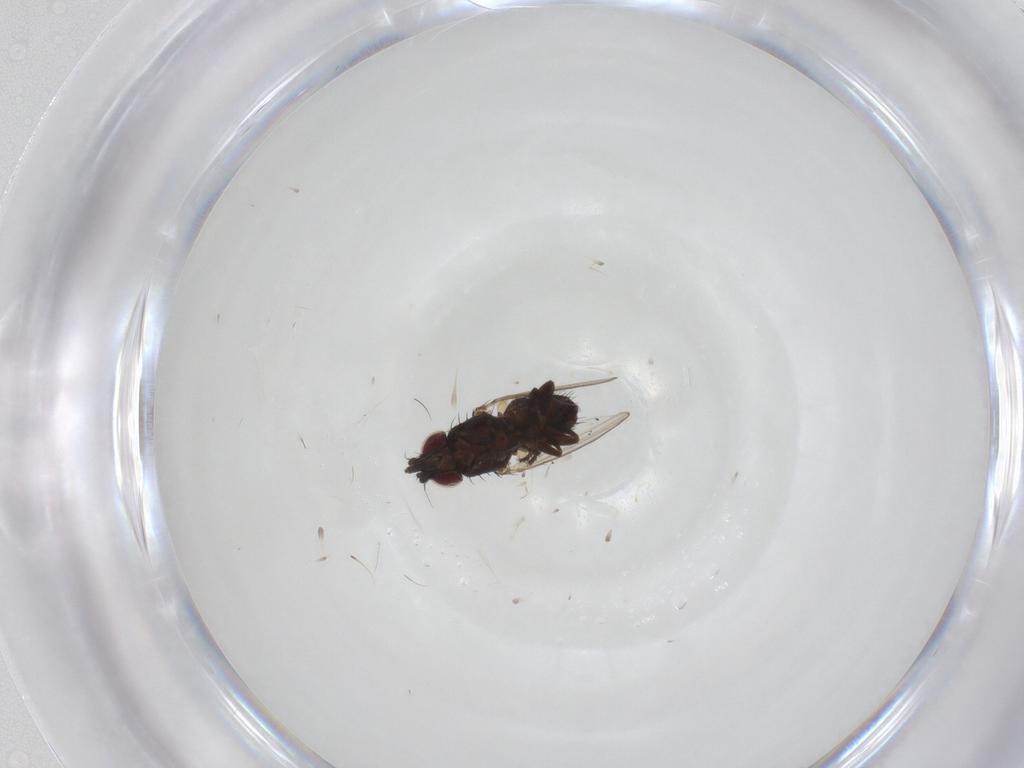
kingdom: Animalia
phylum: Arthropoda
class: Insecta
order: Diptera
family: Milichiidae
